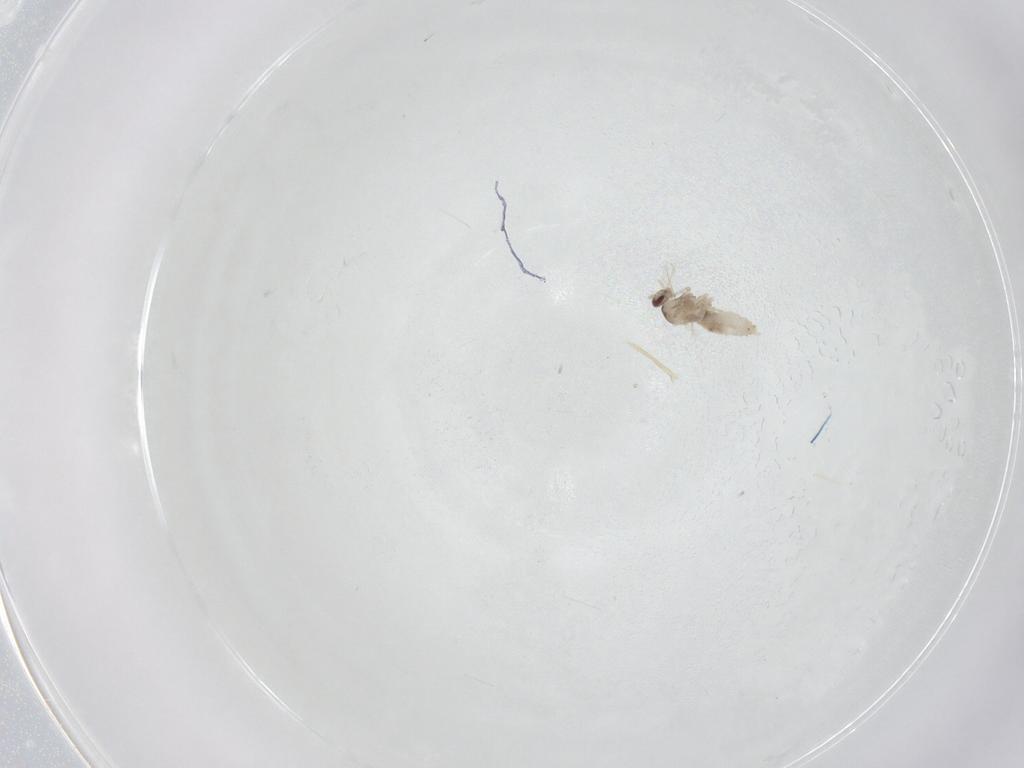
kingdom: Animalia
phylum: Arthropoda
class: Insecta
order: Diptera
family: Cecidomyiidae
